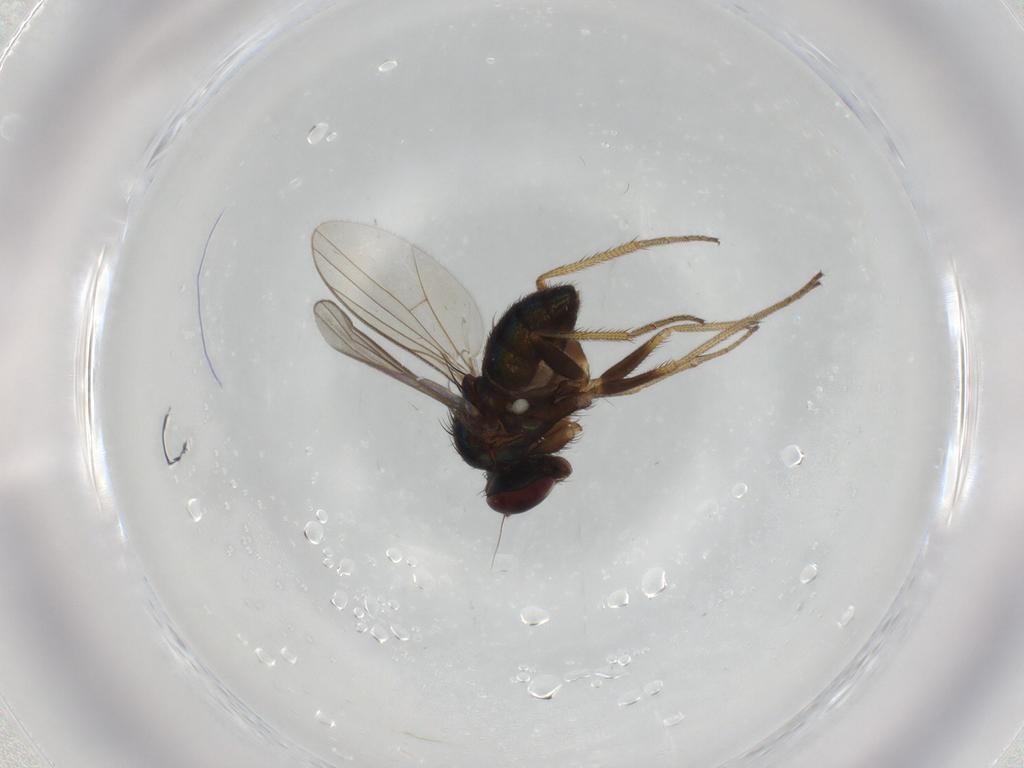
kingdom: Animalia
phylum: Arthropoda
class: Insecta
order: Diptera
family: Dolichopodidae
